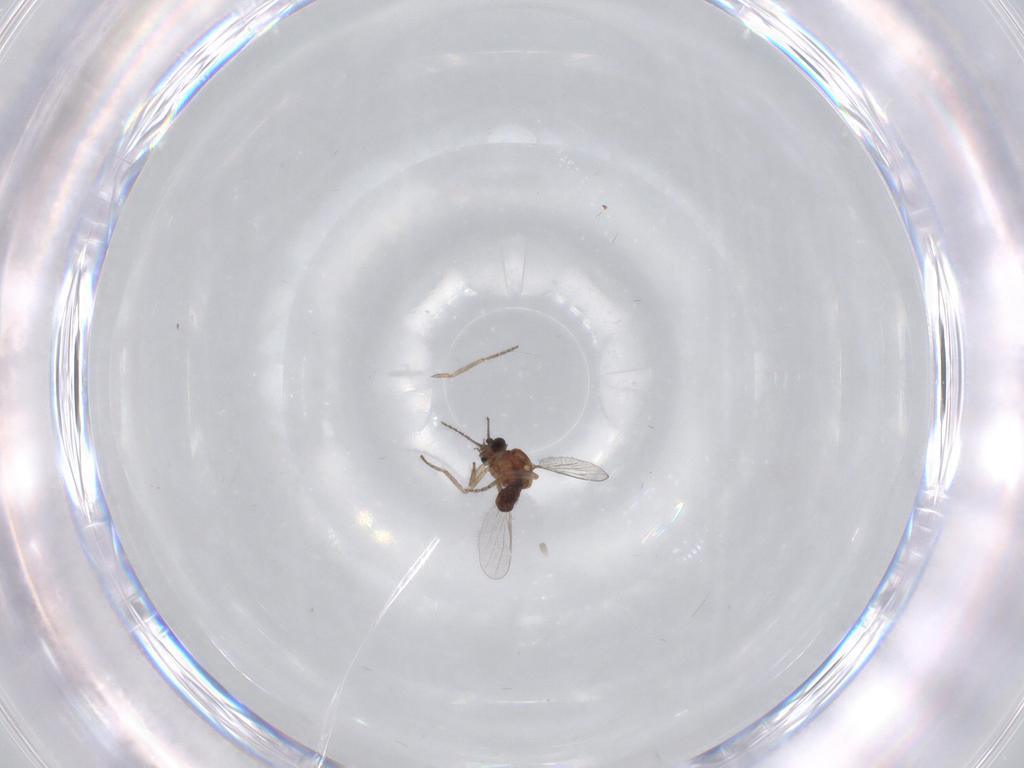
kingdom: Animalia
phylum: Arthropoda
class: Insecta
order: Diptera
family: Ceratopogonidae
